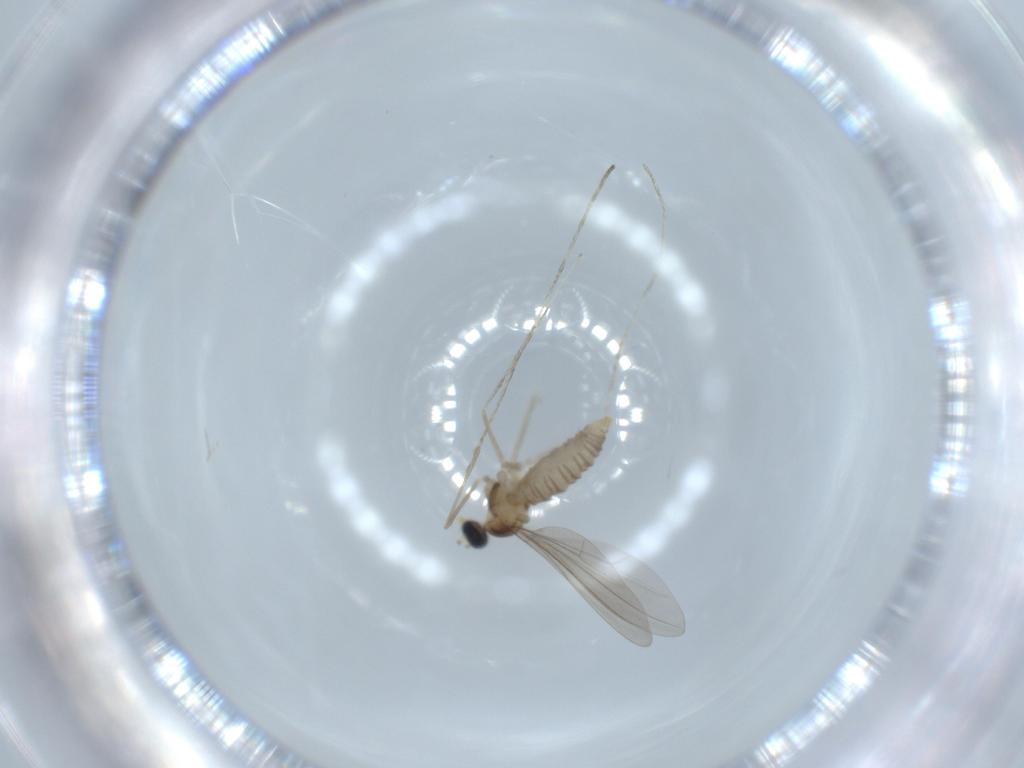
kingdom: Animalia
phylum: Arthropoda
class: Insecta
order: Diptera
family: Cecidomyiidae
